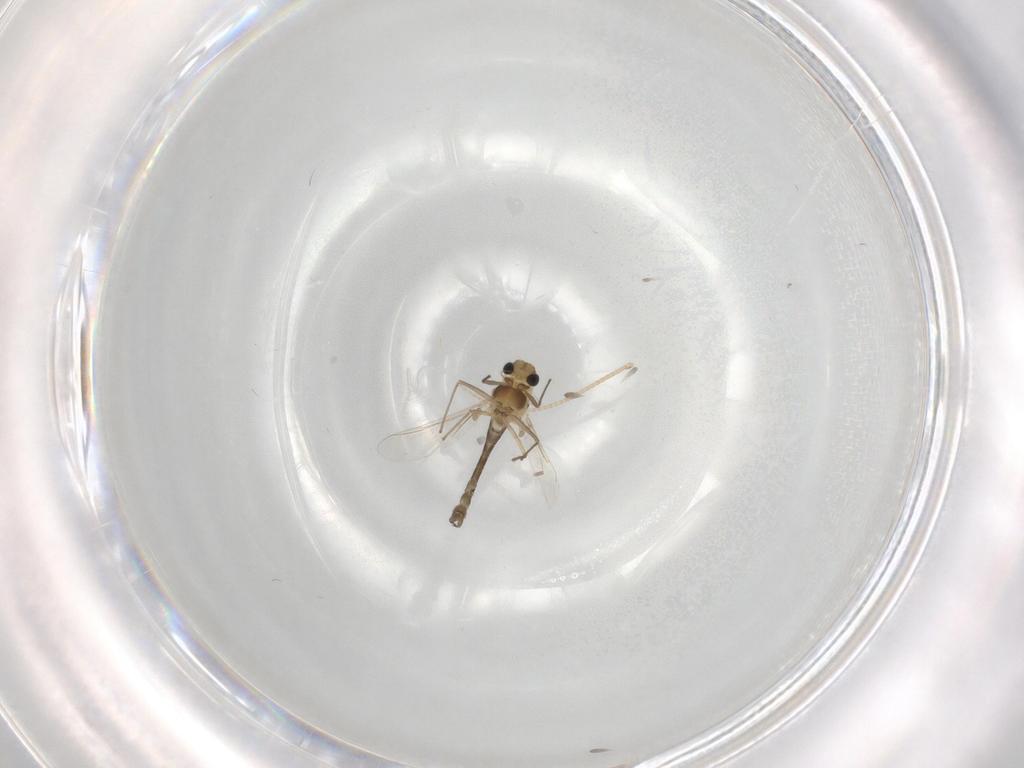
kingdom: Animalia
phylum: Arthropoda
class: Insecta
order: Diptera
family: Chironomidae
